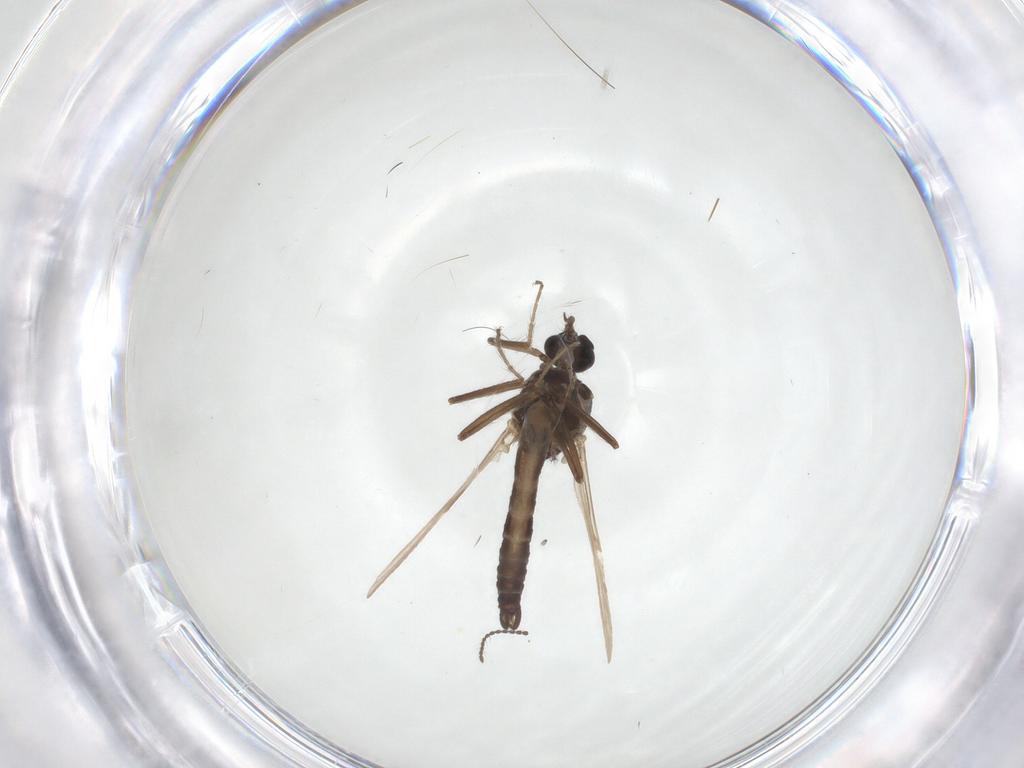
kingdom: Animalia
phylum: Arthropoda
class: Insecta
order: Diptera
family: Ceratopogonidae
